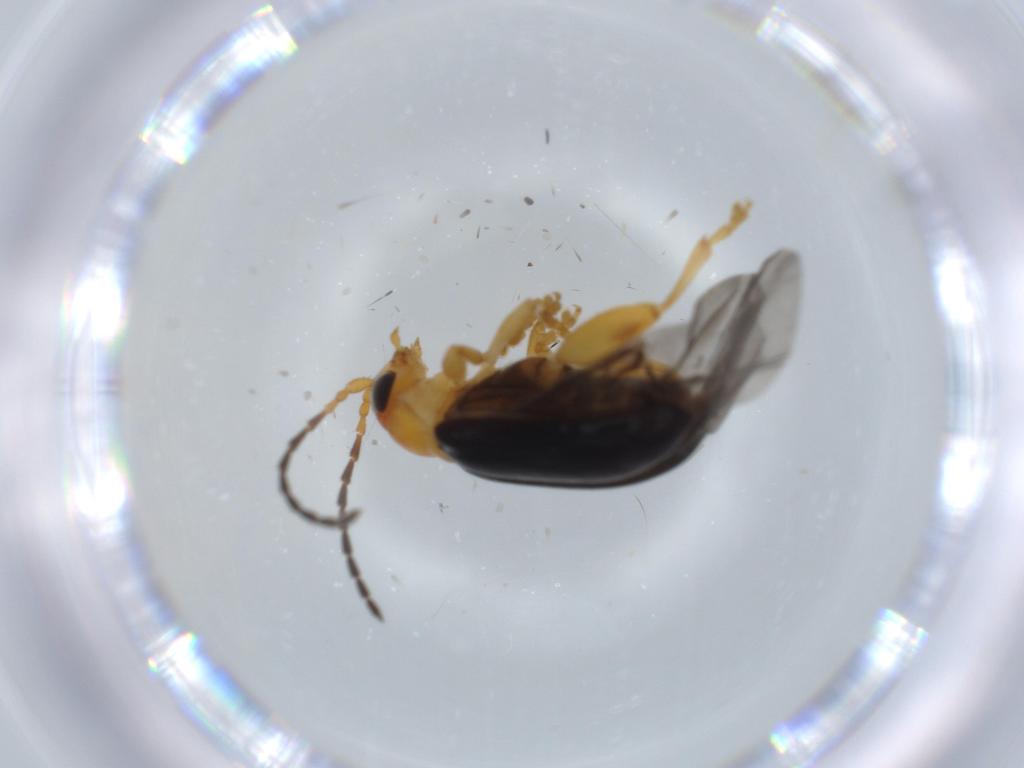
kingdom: Animalia
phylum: Arthropoda
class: Insecta
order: Coleoptera
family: Chrysomelidae
